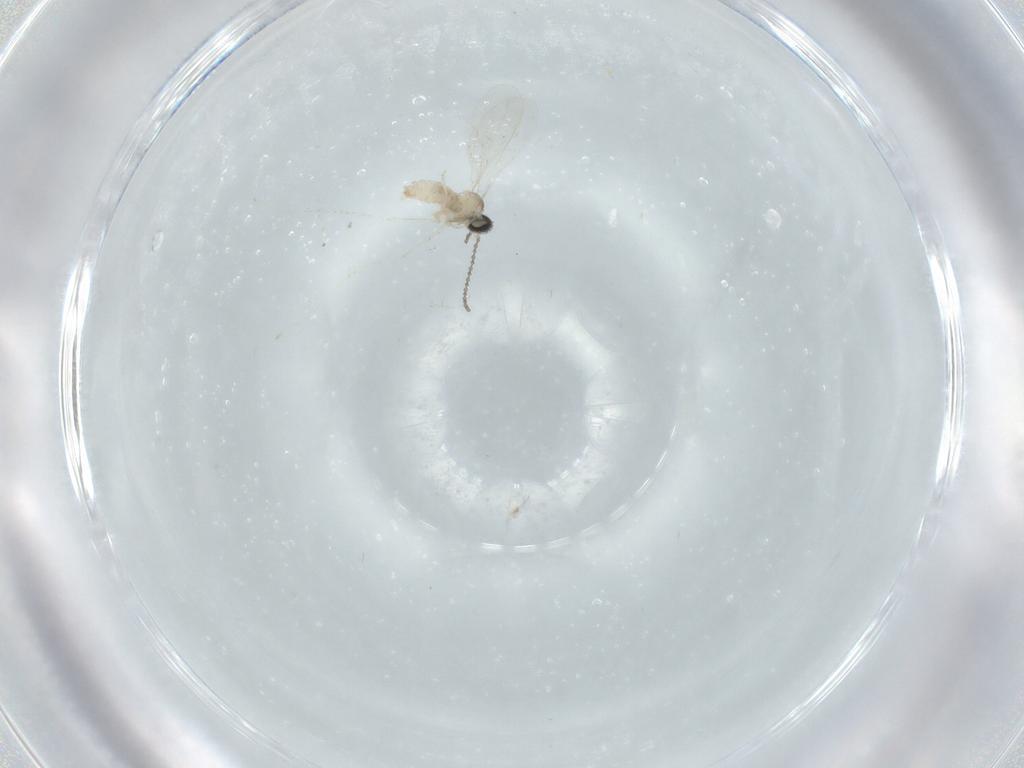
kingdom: Animalia
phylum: Arthropoda
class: Insecta
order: Diptera
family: Cecidomyiidae
